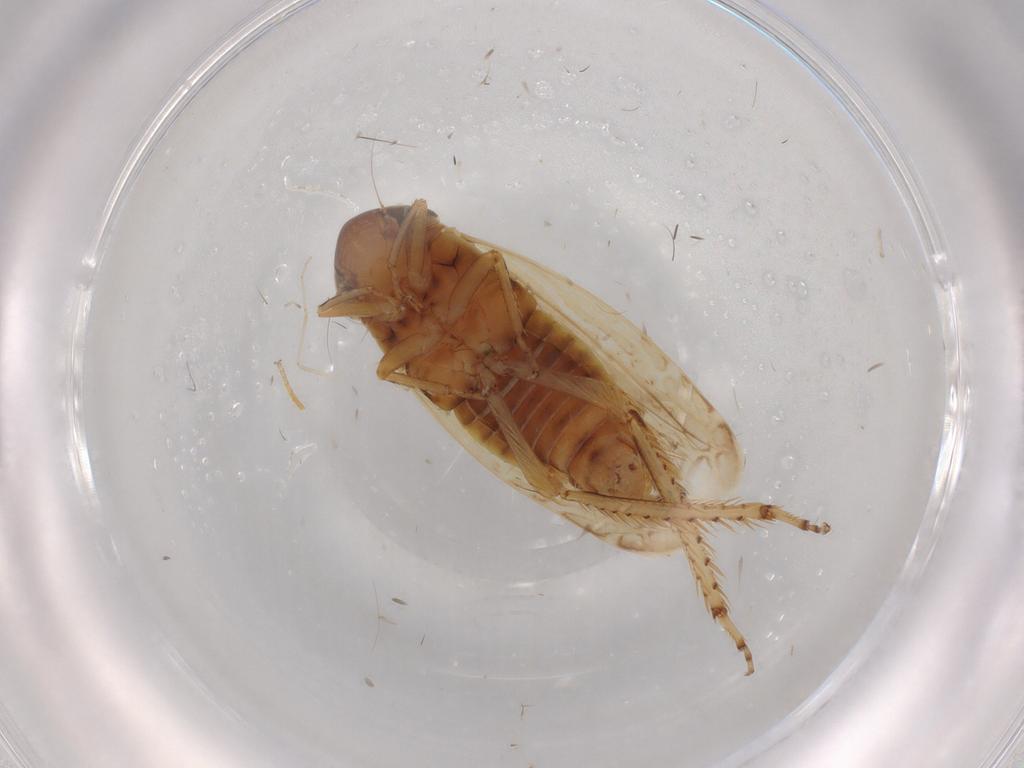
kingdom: Animalia
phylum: Arthropoda
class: Insecta
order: Hemiptera
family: Cicadellidae
